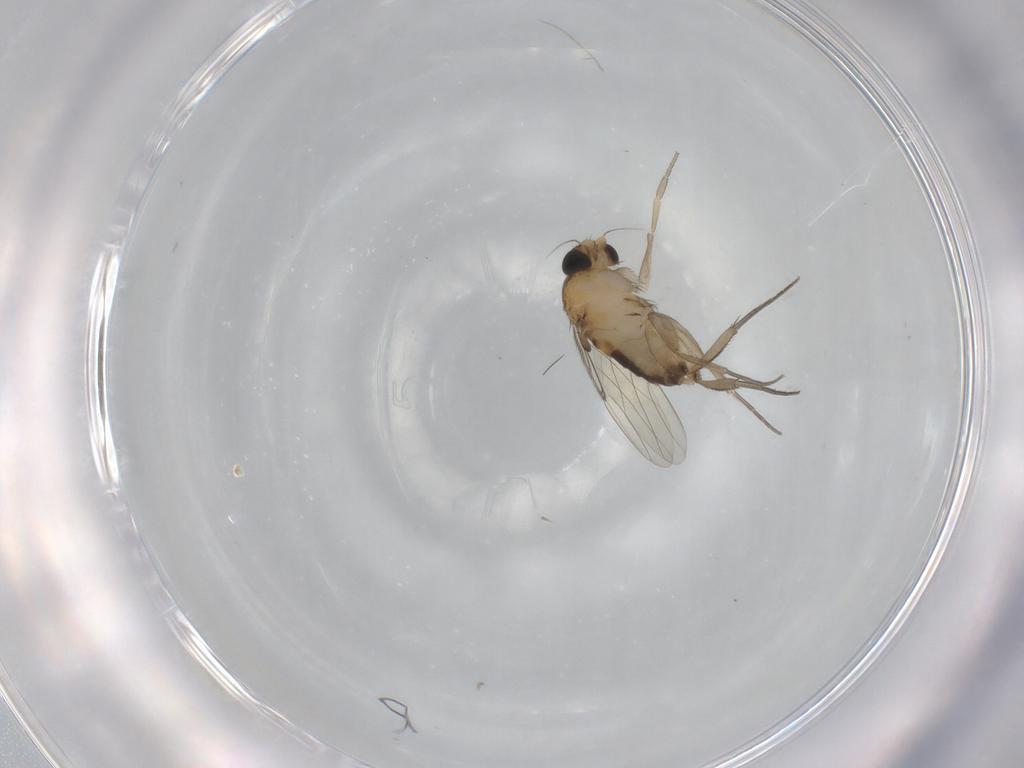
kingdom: Animalia
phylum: Arthropoda
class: Insecta
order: Diptera
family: Phoridae
